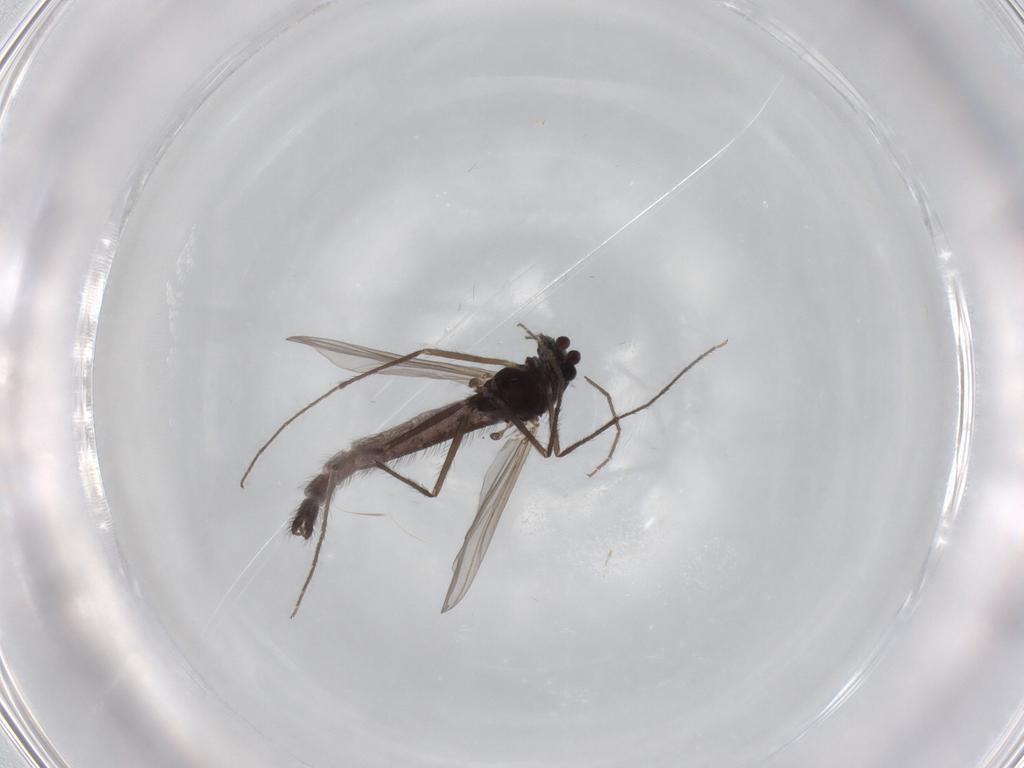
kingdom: Animalia
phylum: Arthropoda
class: Insecta
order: Diptera
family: Chironomidae
